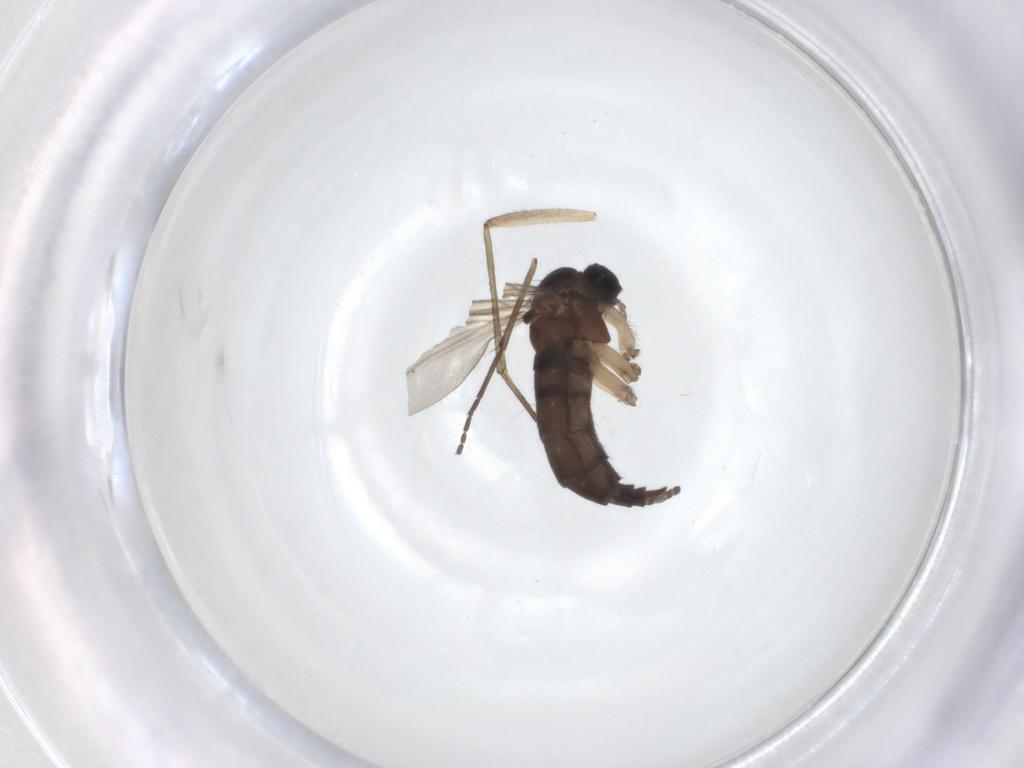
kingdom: Animalia
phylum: Arthropoda
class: Insecta
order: Diptera
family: Sciaridae
